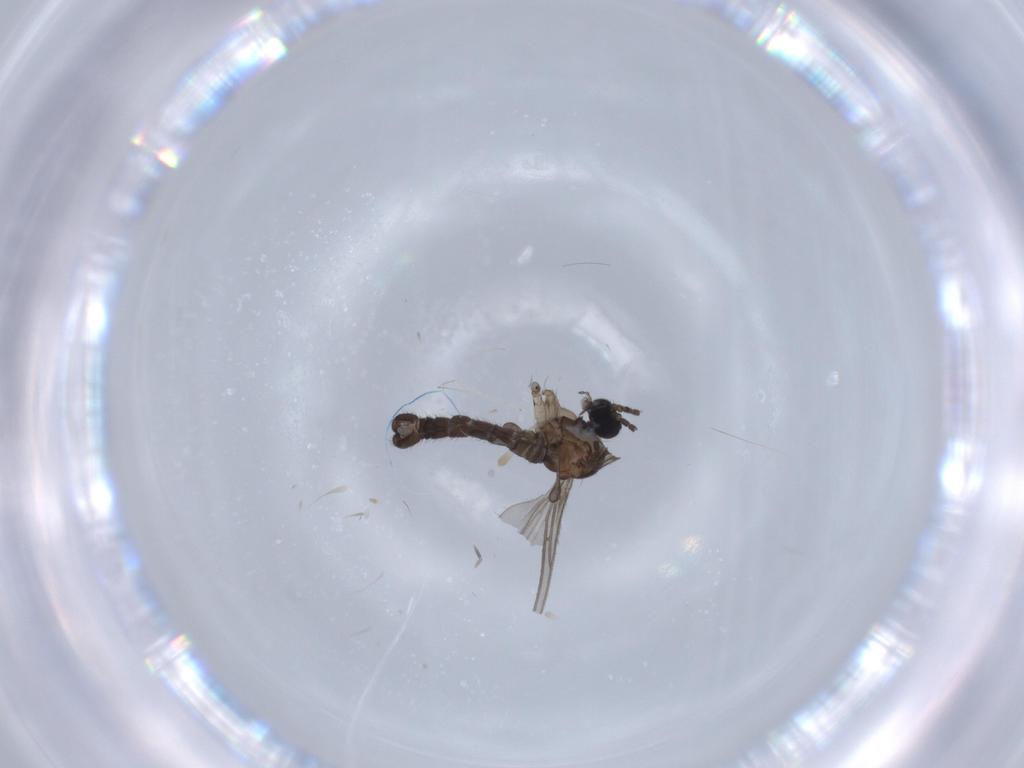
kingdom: Animalia
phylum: Arthropoda
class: Insecta
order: Diptera
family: Sciaridae
